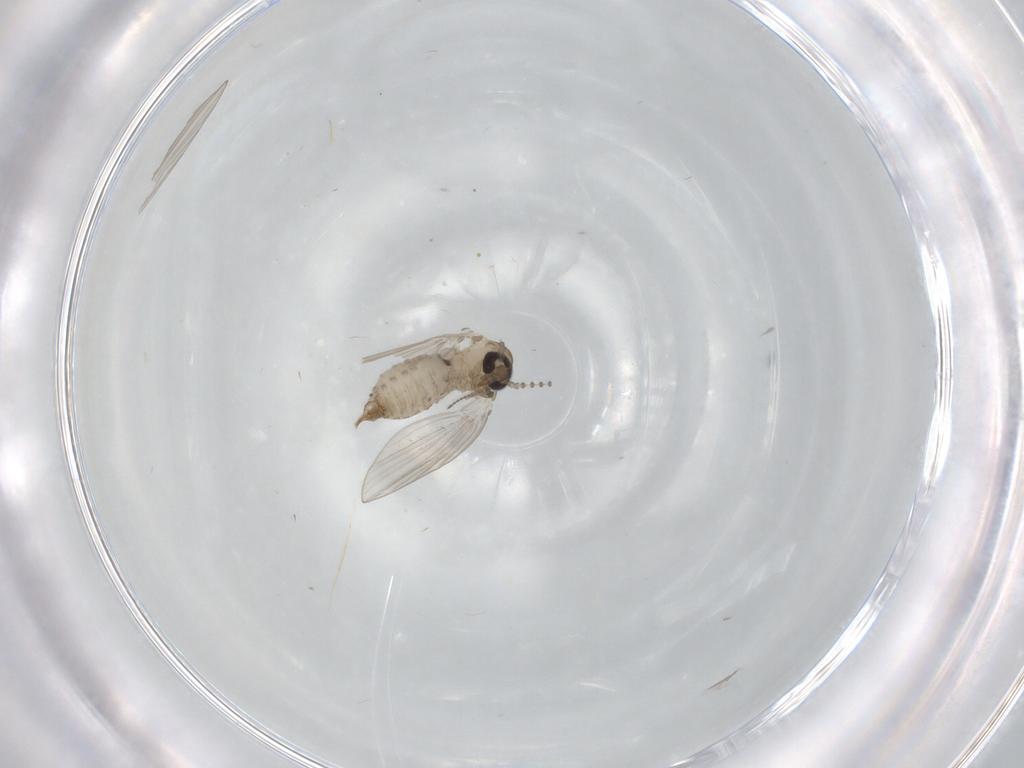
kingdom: Animalia
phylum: Arthropoda
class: Insecta
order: Diptera
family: Psychodidae
